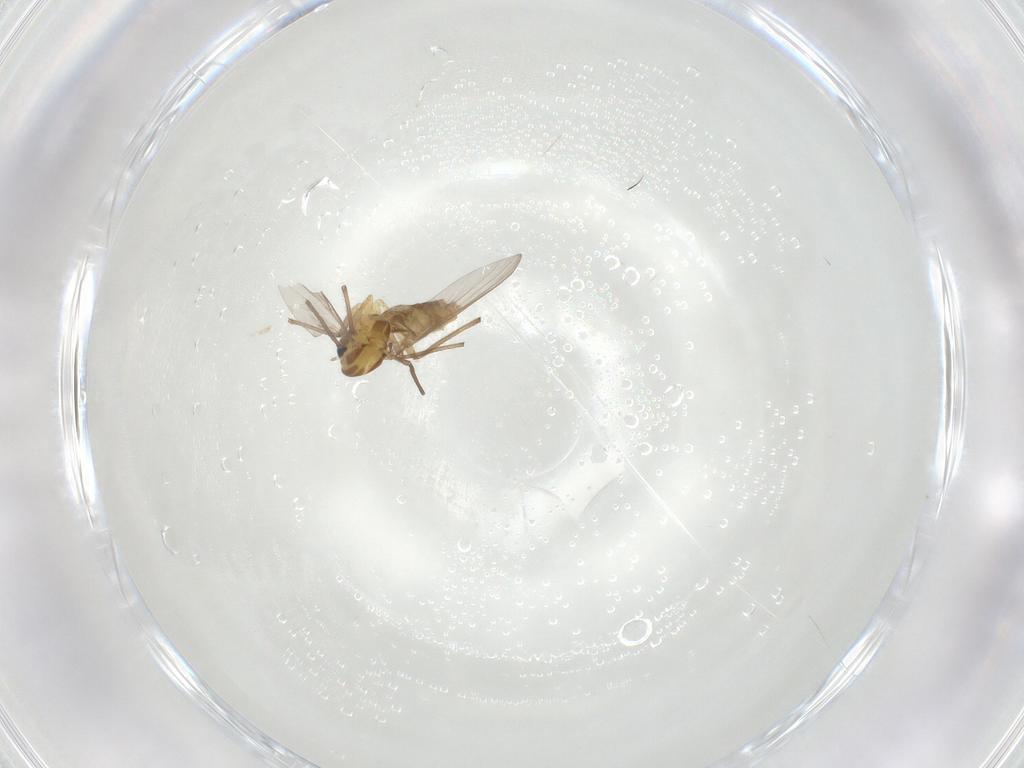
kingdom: Animalia
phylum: Arthropoda
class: Insecta
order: Diptera
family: Chironomidae
